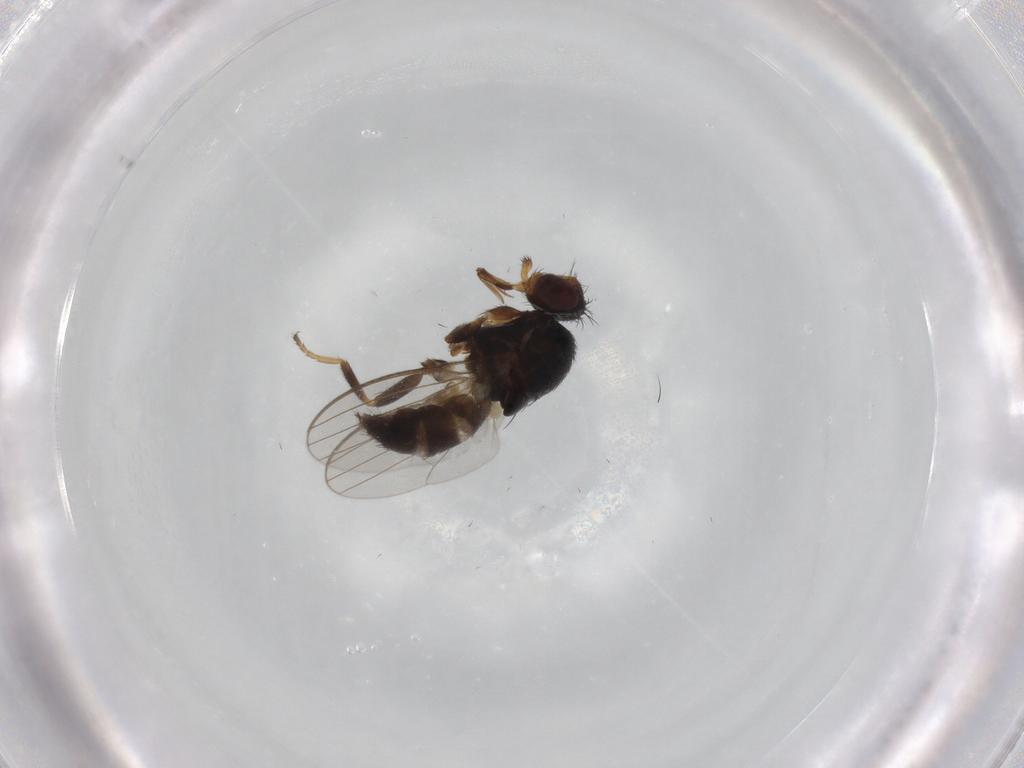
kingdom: Animalia
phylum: Arthropoda
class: Insecta
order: Diptera
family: Milichiidae
